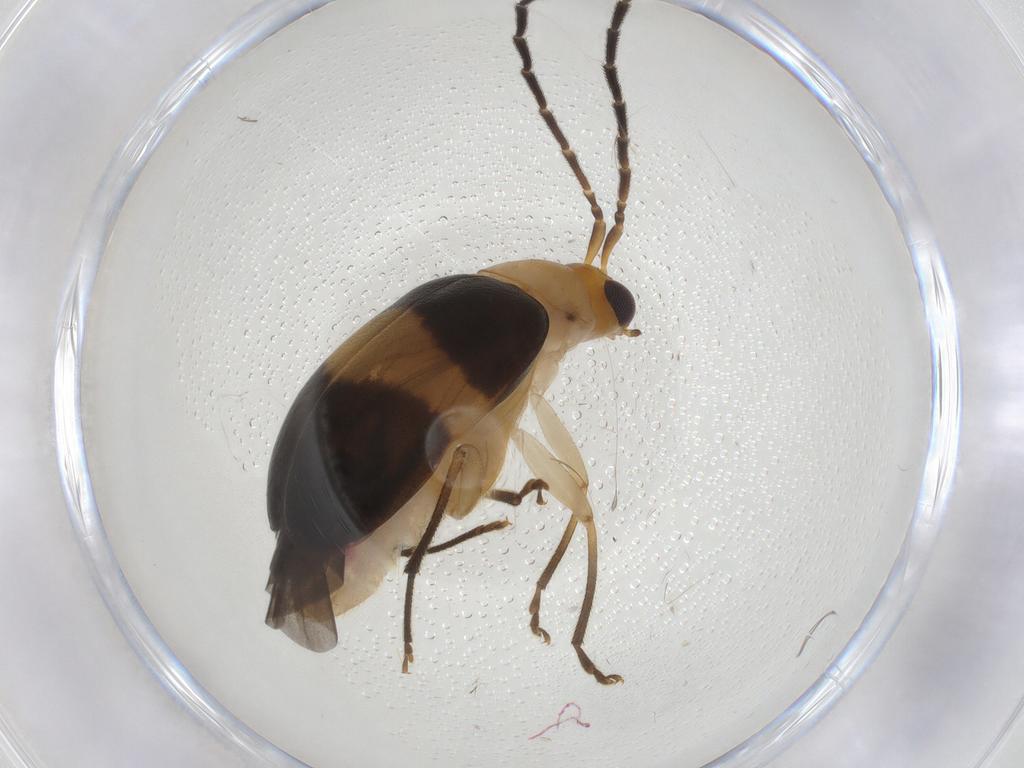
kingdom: Animalia
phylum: Arthropoda
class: Insecta
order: Coleoptera
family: Chrysomelidae
